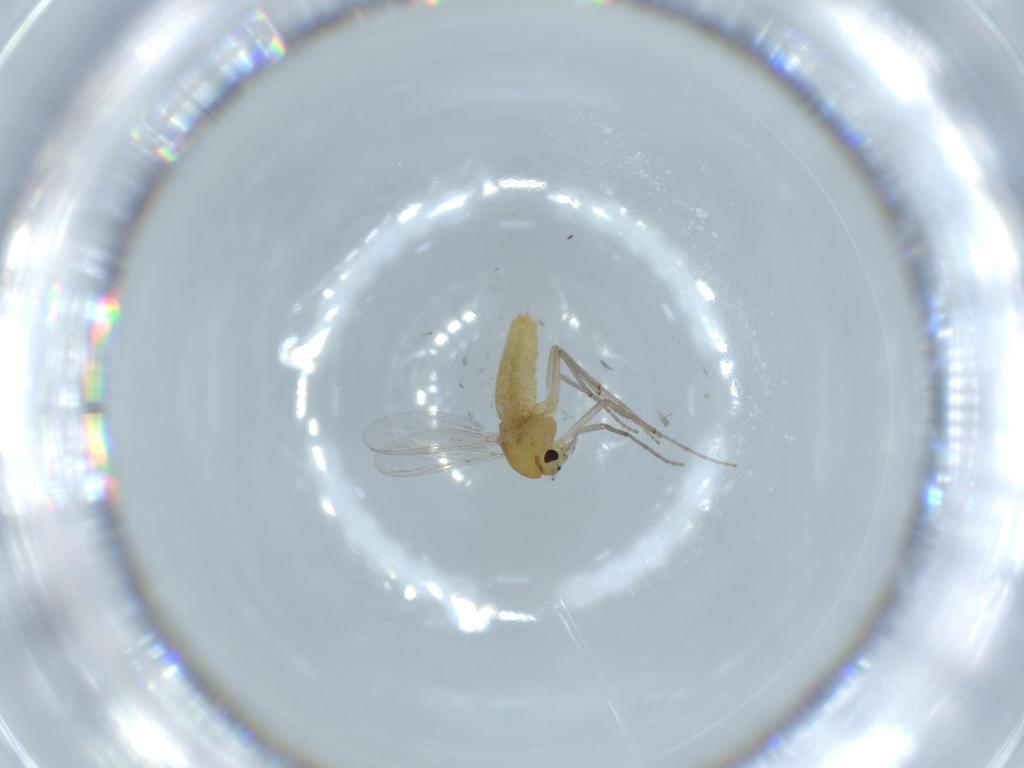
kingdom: Animalia
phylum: Arthropoda
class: Insecta
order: Diptera
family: Chironomidae
